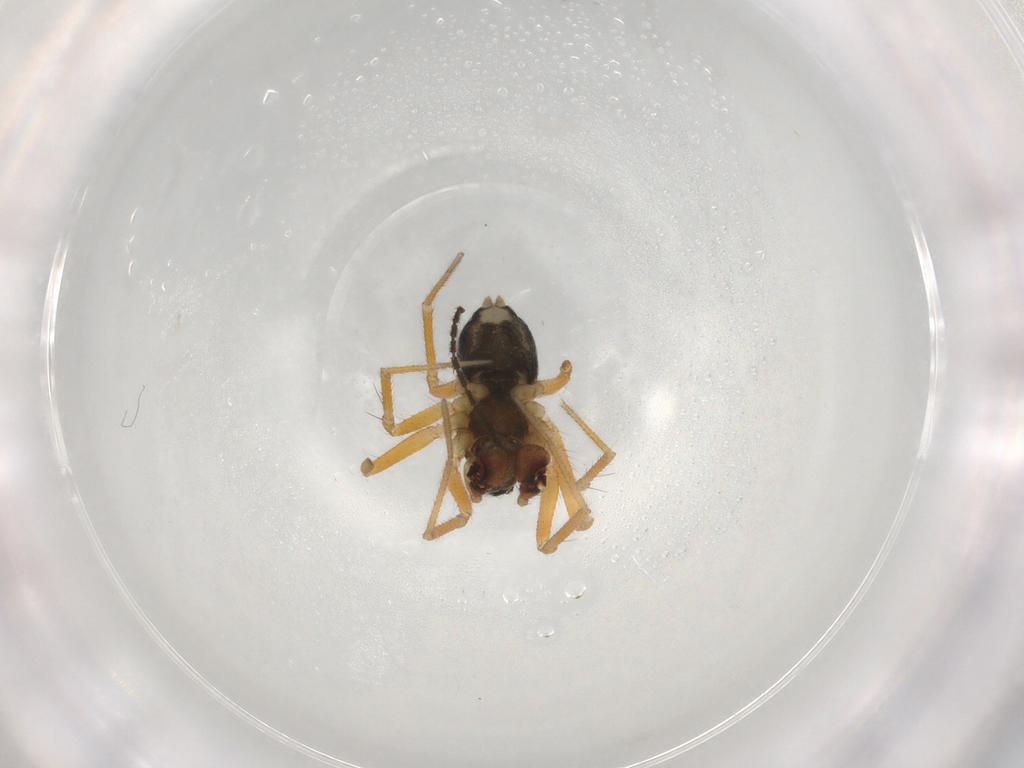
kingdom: Animalia
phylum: Arthropoda
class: Arachnida
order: Araneae
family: Linyphiidae
